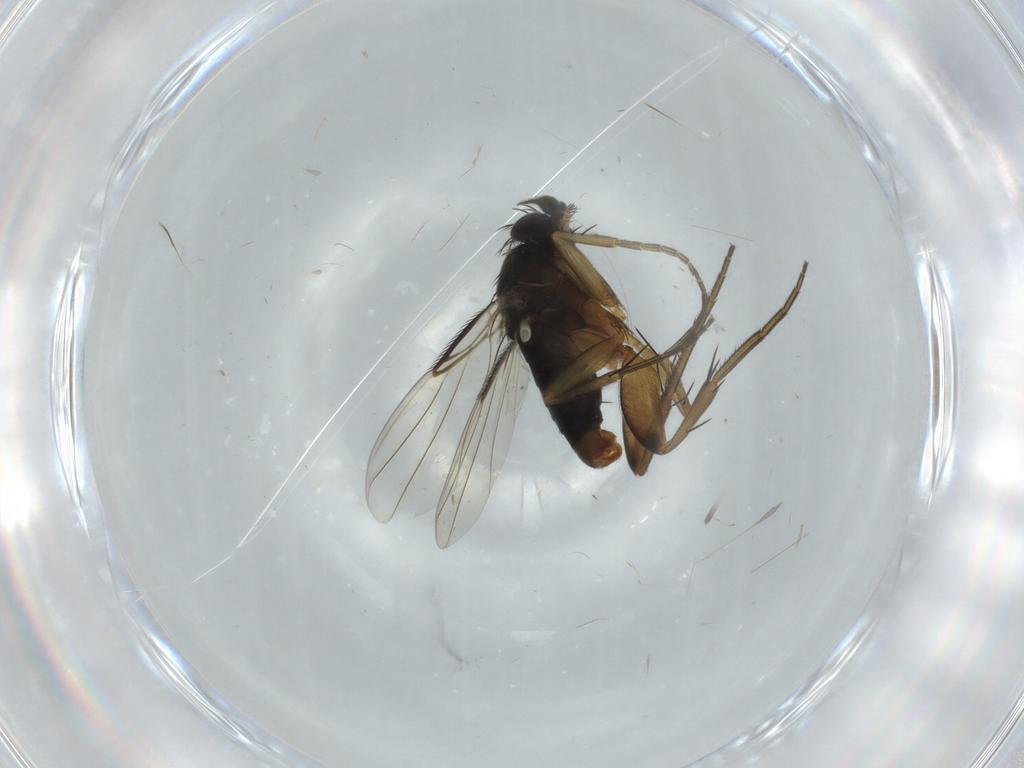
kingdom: Animalia
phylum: Arthropoda
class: Insecta
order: Diptera
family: Phoridae
